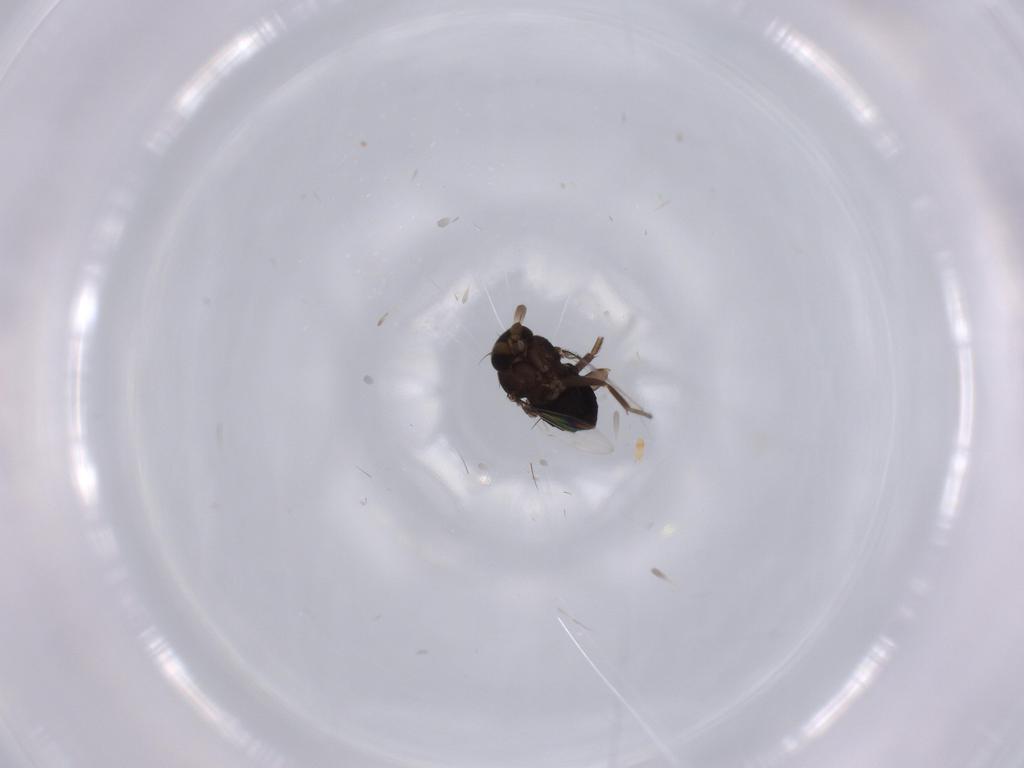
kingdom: Animalia
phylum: Arthropoda
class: Insecta
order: Diptera
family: Phoridae
